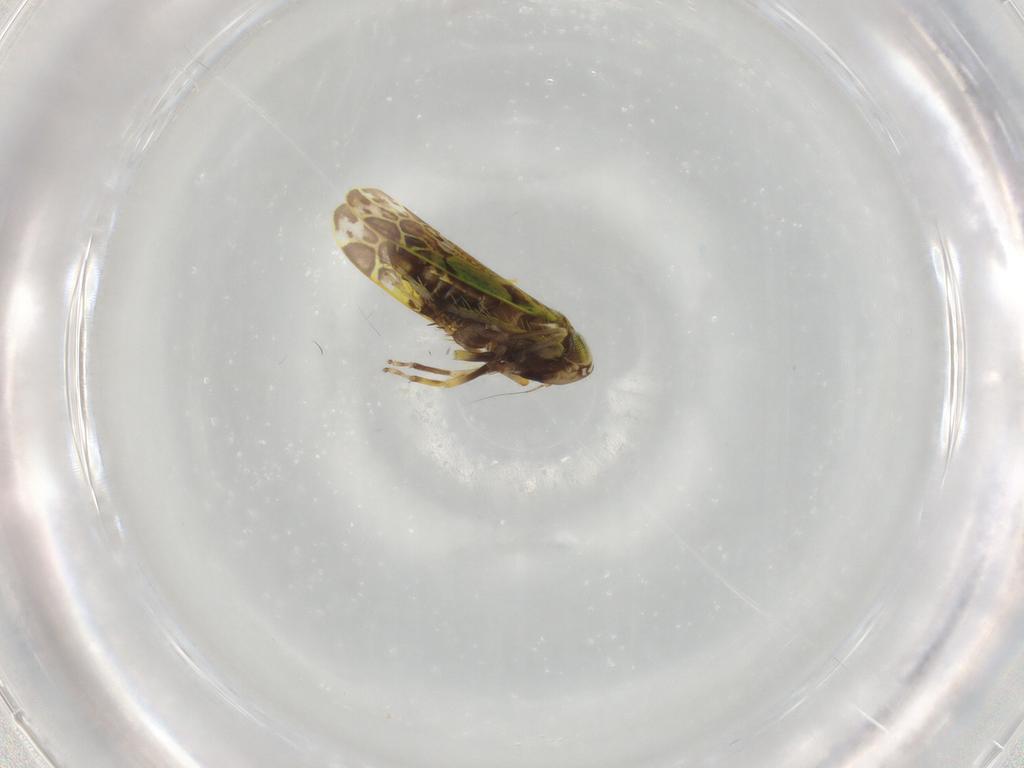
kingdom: Animalia
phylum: Arthropoda
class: Insecta
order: Hemiptera
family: Cicadellidae
